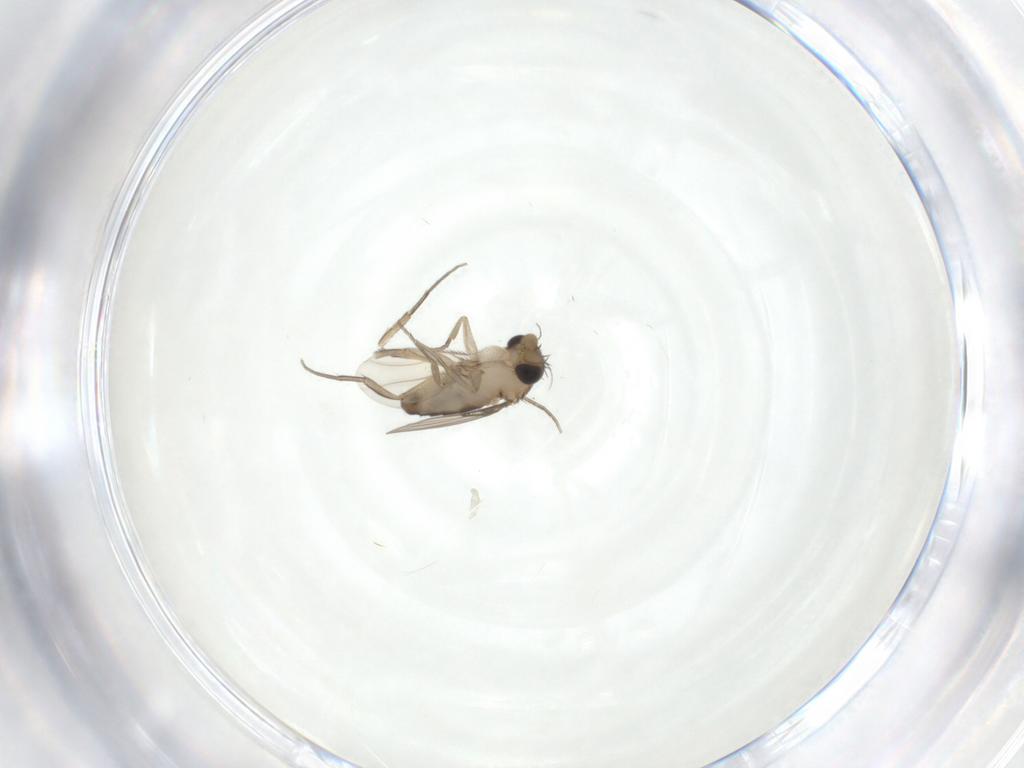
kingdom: Animalia
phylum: Arthropoda
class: Insecta
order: Diptera
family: Phoridae
